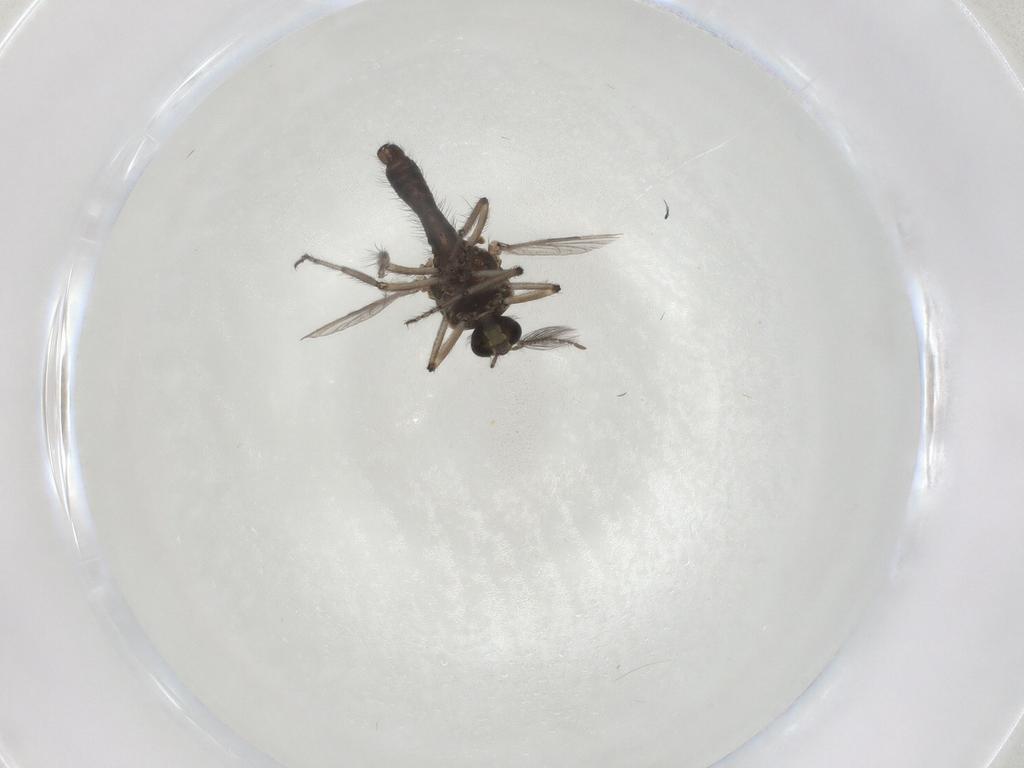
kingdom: Animalia
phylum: Arthropoda
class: Insecta
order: Diptera
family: Ceratopogonidae
